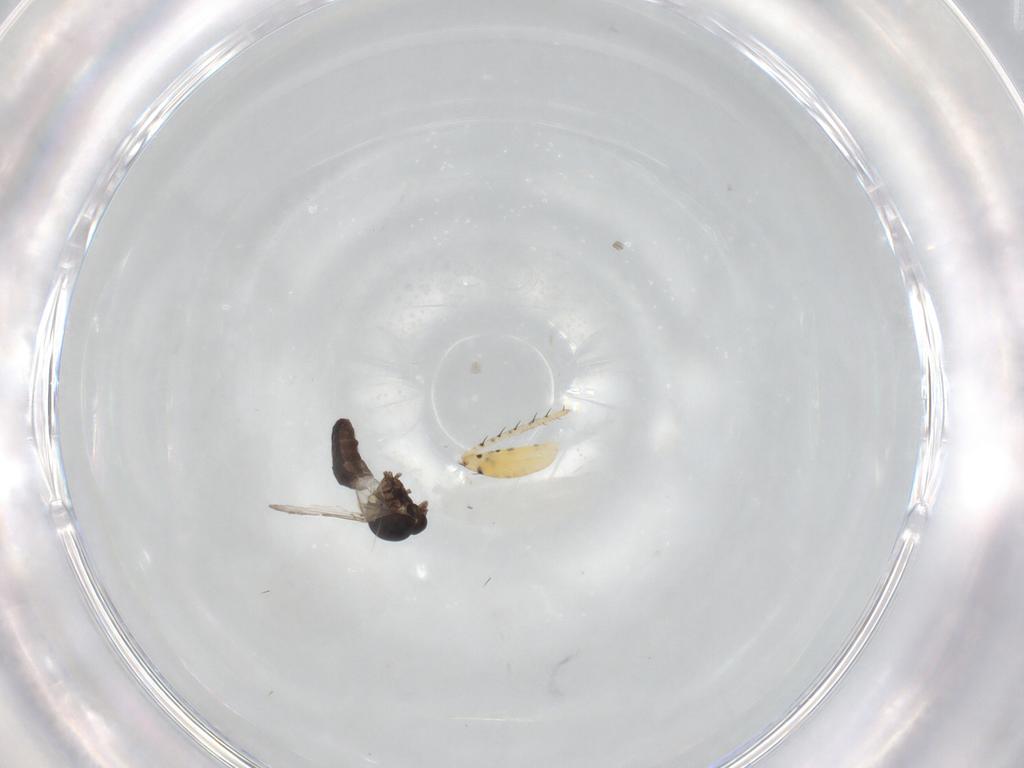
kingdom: Animalia
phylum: Arthropoda
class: Insecta
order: Diptera
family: Ceratopogonidae
